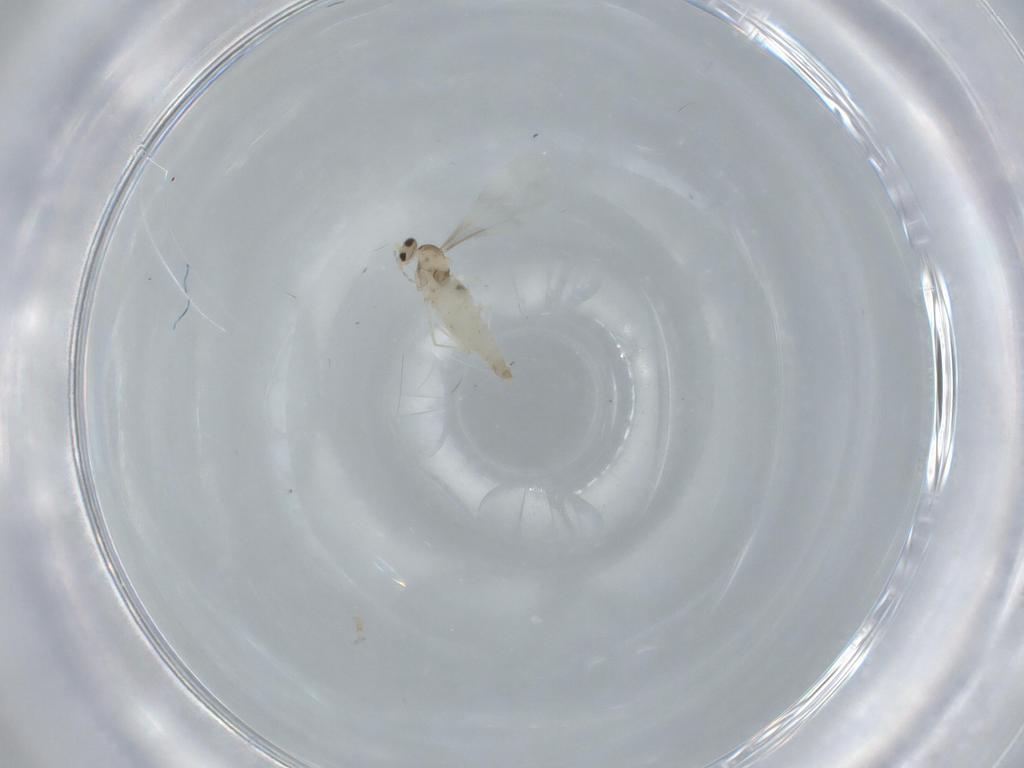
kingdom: Animalia
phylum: Arthropoda
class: Insecta
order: Diptera
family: Cecidomyiidae
